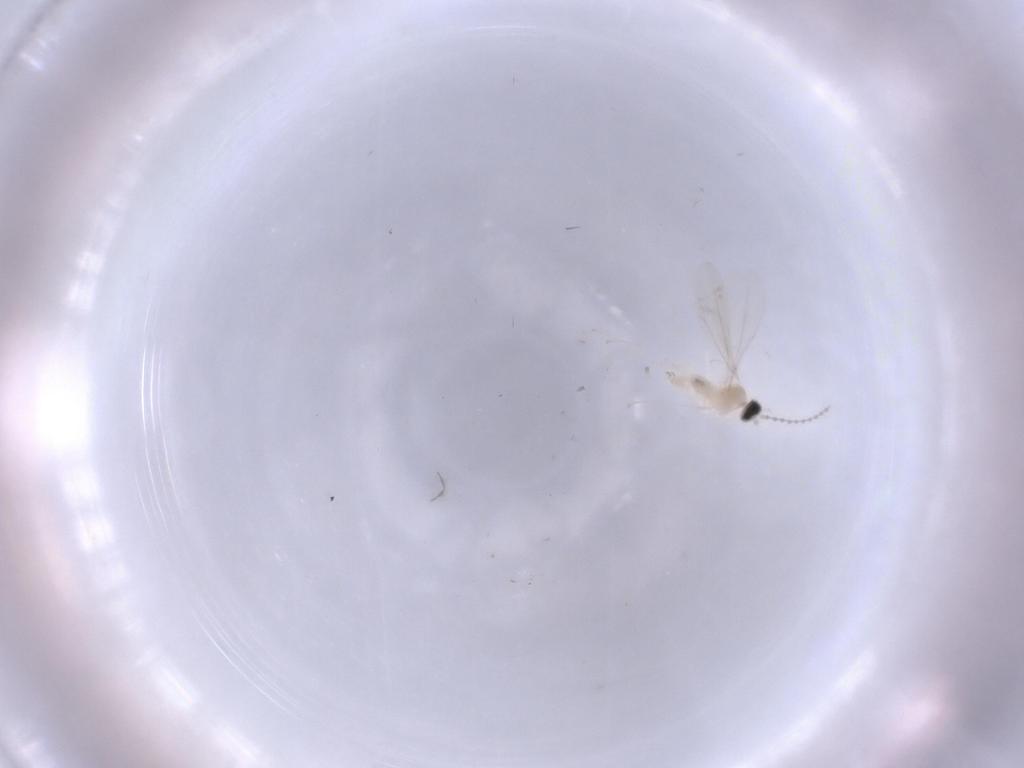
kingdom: Animalia
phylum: Arthropoda
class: Insecta
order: Diptera
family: Cecidomyiidae
